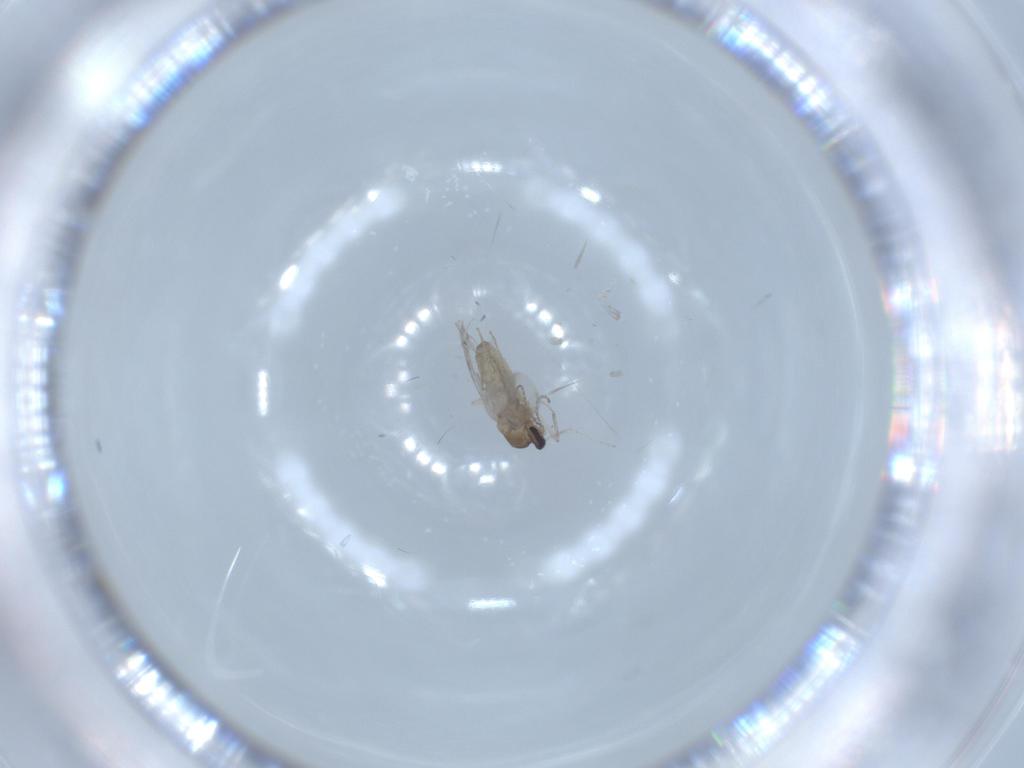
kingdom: Animalia
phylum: Arthropoda
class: Insecta
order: Diptera
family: Cecidomyiidae
